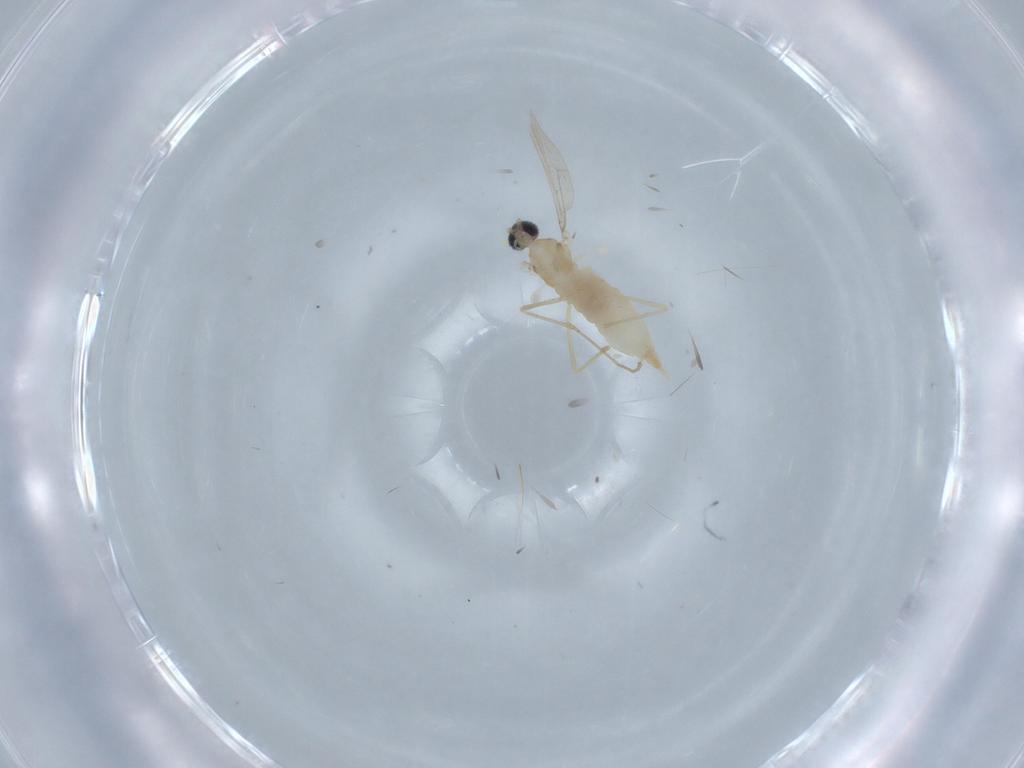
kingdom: Animalia
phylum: Arthropoda
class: Insecta
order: Diptera
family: Cecidomyiidae
